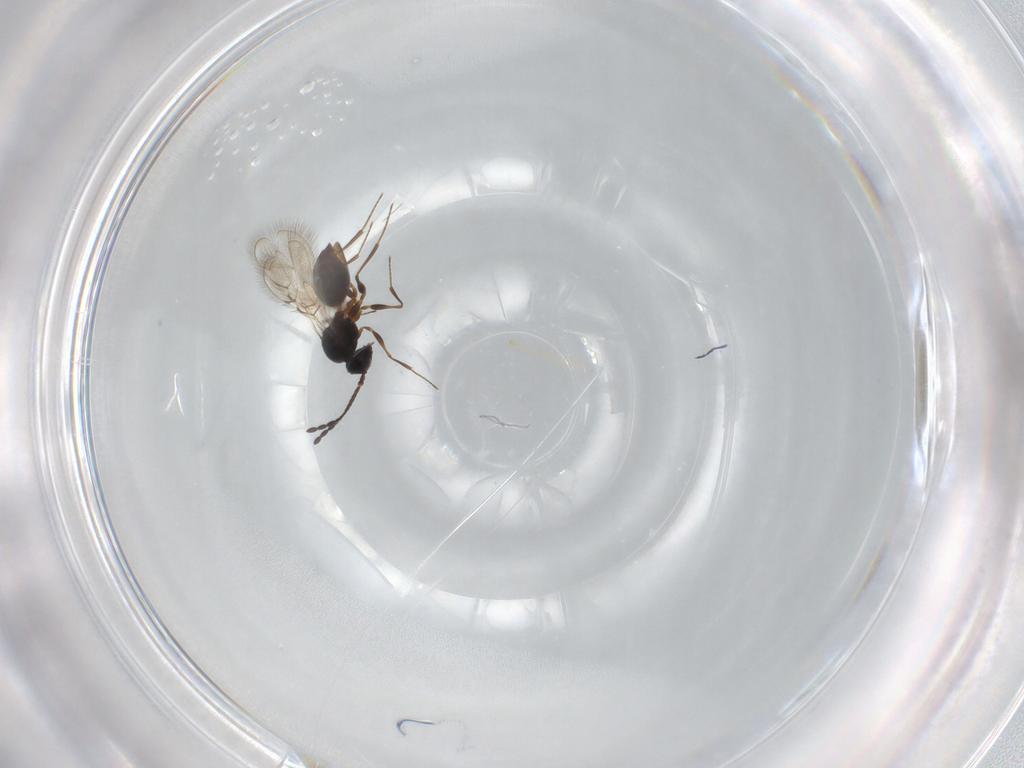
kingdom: Animalia
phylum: Arthropoda
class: Insecta
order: Hymenoptera
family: Figitidae
